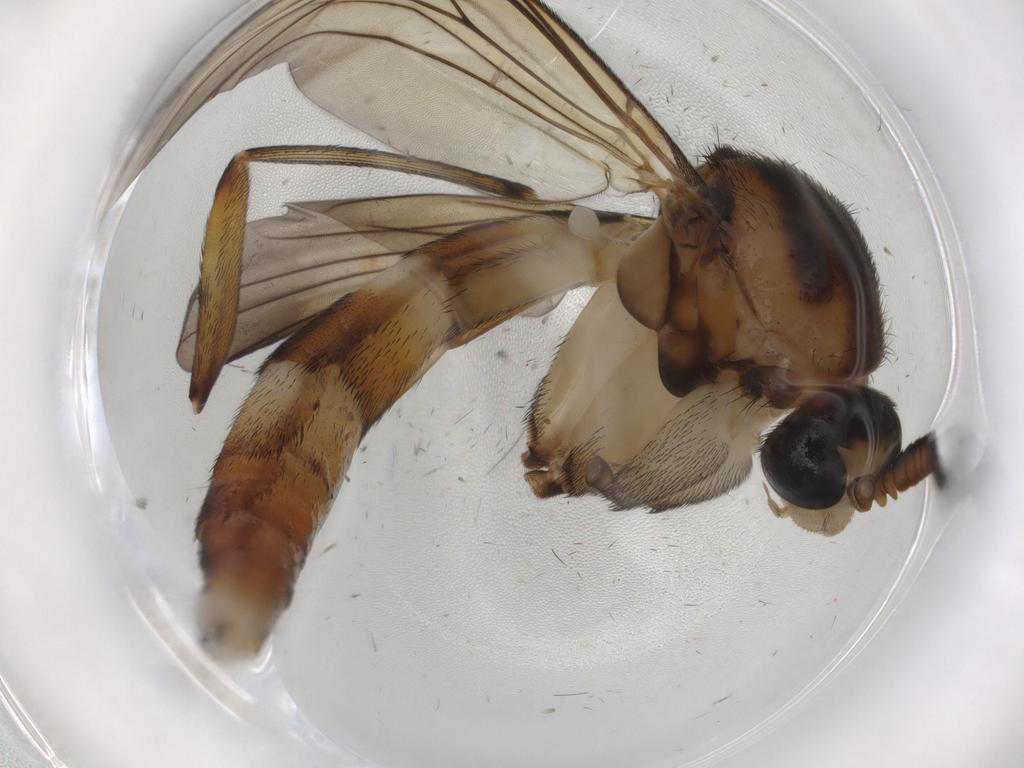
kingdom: Animalia
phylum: Arthropoda
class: Insecta
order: Diptera
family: Keroplatidae
